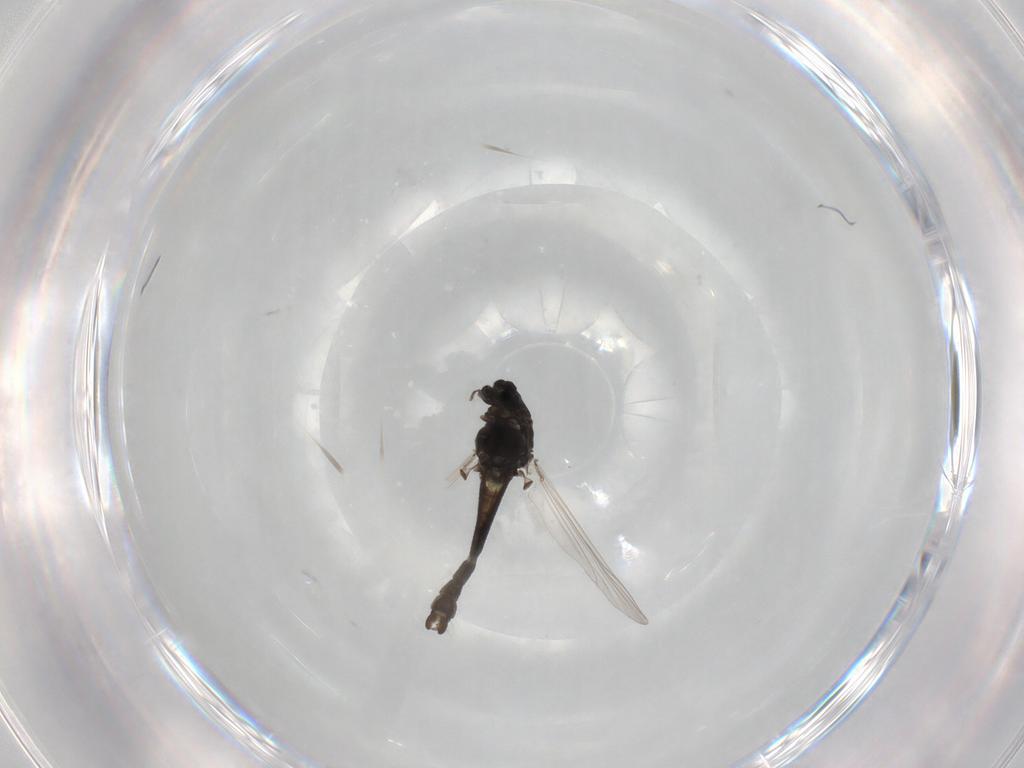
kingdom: Animalia
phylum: Arthropoda
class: Insecta
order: Diptera
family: Chironomidae
